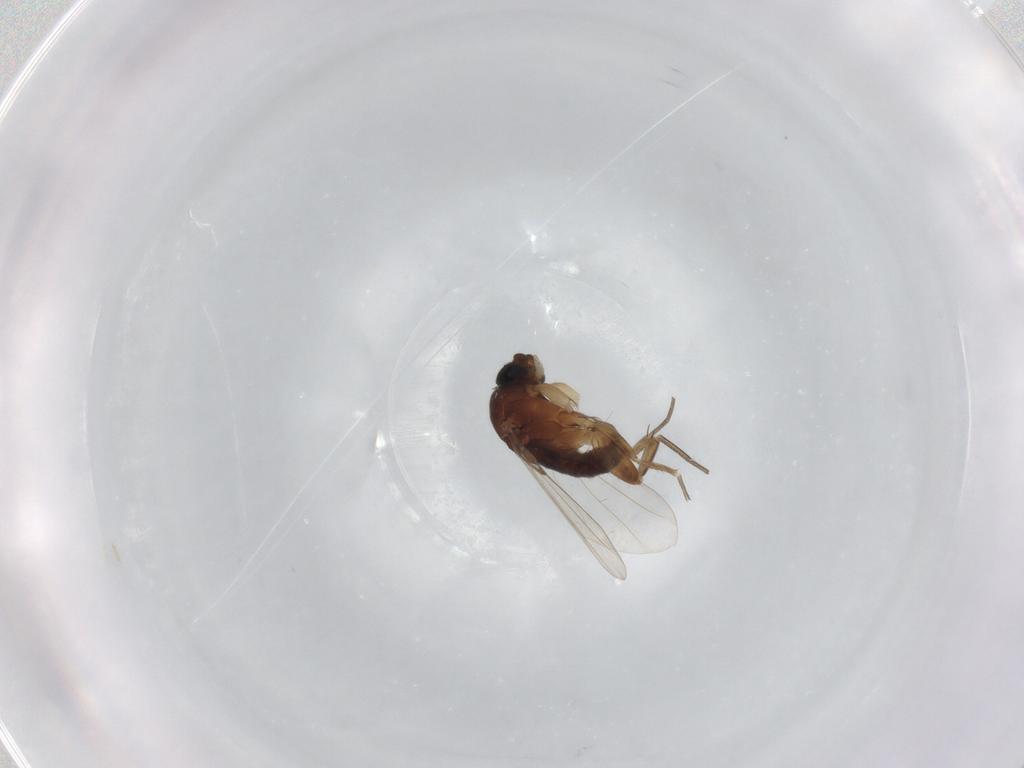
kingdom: Animalia
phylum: Arthropoda
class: Insecta
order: Diptera
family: Phoridae
